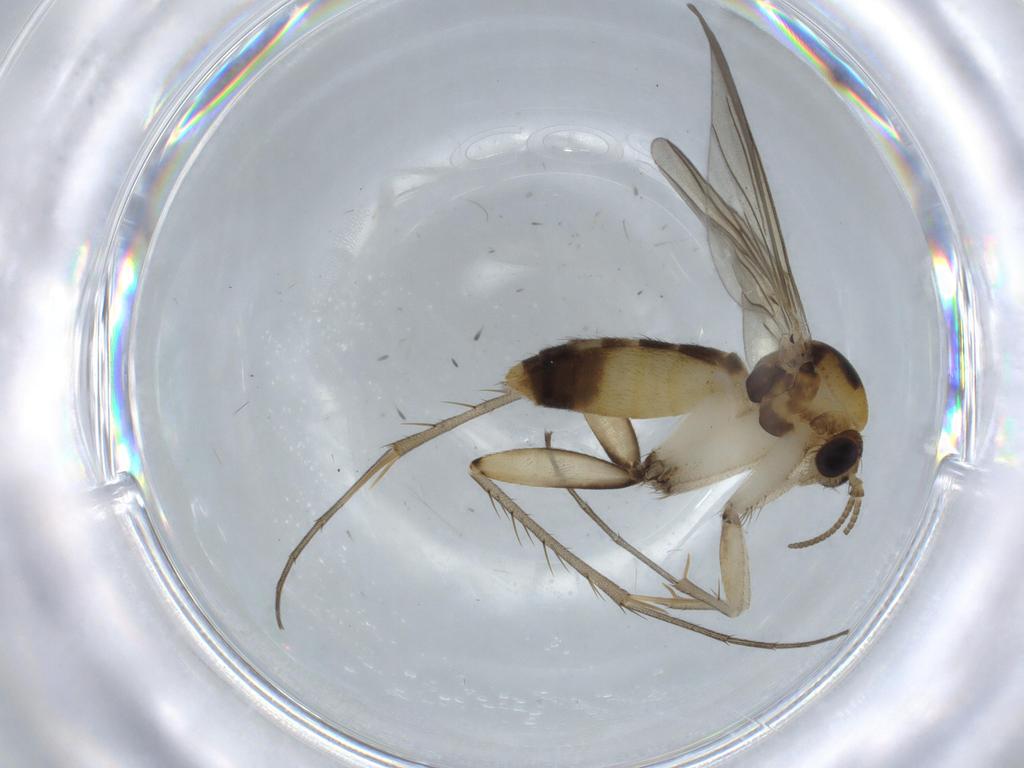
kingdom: Animalia
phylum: Arthropoda
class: Insecta
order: Diptera
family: Mycetophilidae
